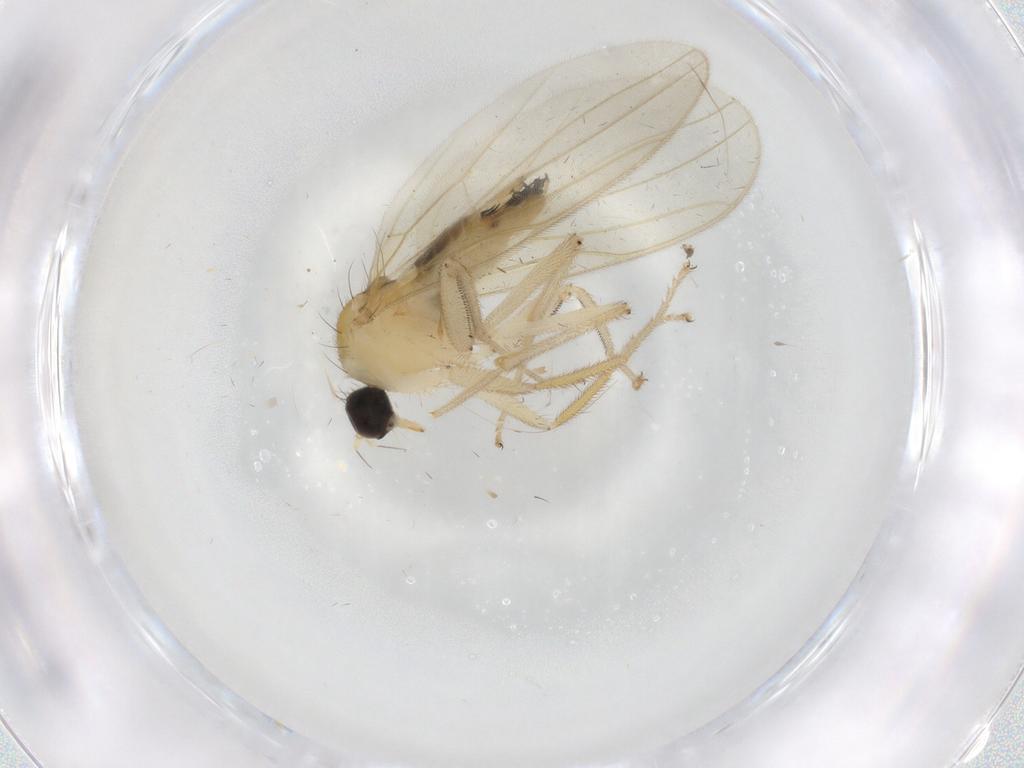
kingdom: Animalia
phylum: Arthropoda
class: Insecta
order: Diptera
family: Hybotidae
